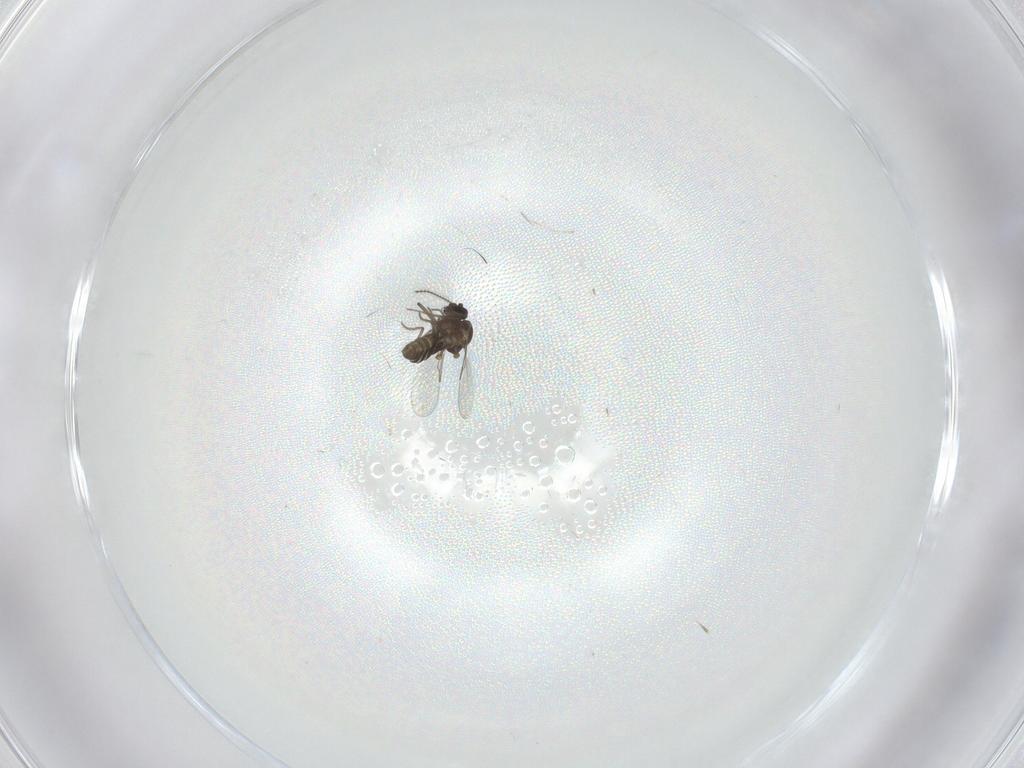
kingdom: Animalia
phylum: Arthropoda
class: Insecta
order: Diptera
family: Ceratopogonidae
